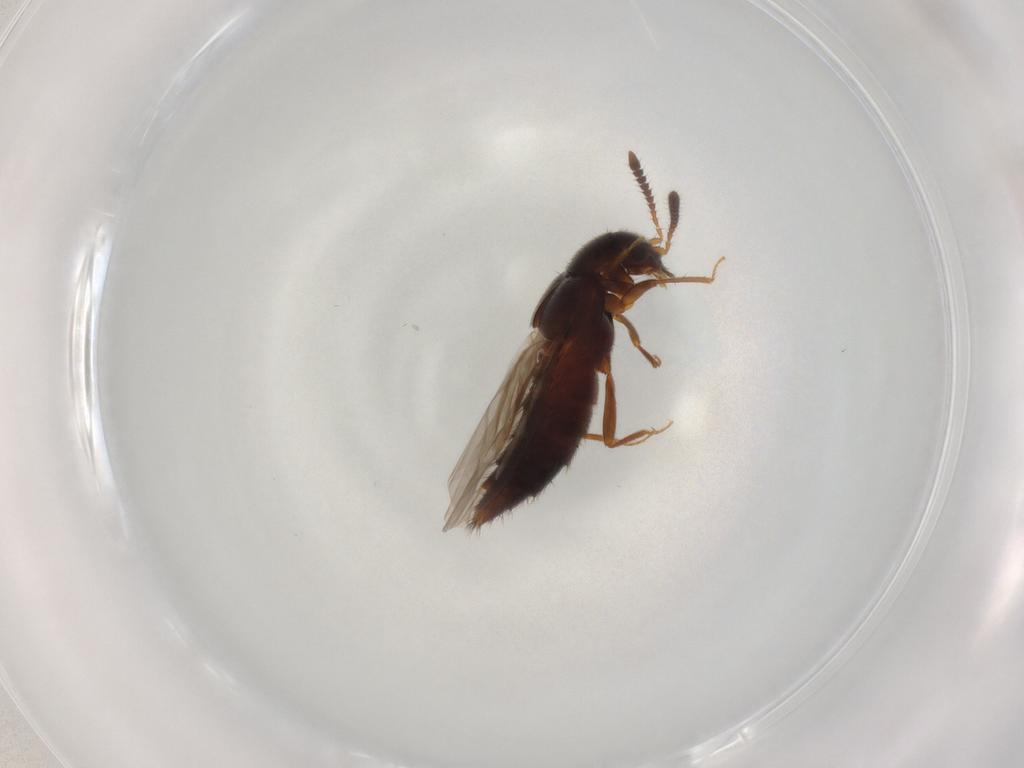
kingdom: Animalia
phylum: Arthropoda
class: Insecta
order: Coleoptera
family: Staphylinidae
